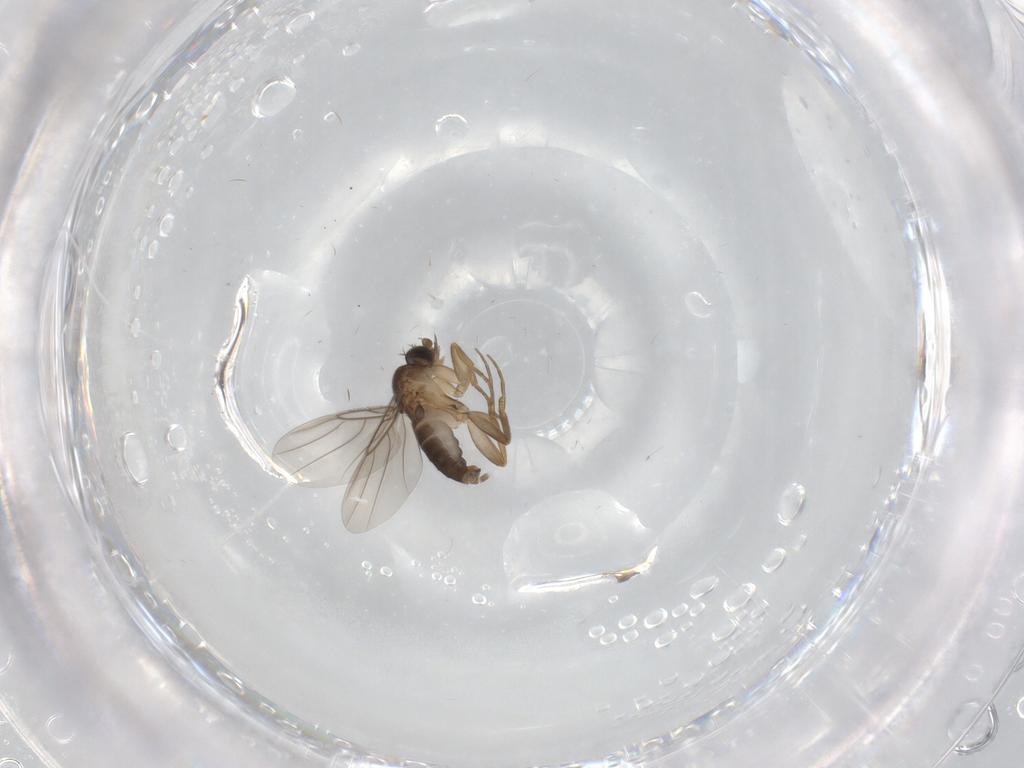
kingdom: Animalia
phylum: Arthropoda
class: Insecta
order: Diptera
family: Cecidomyiidae
